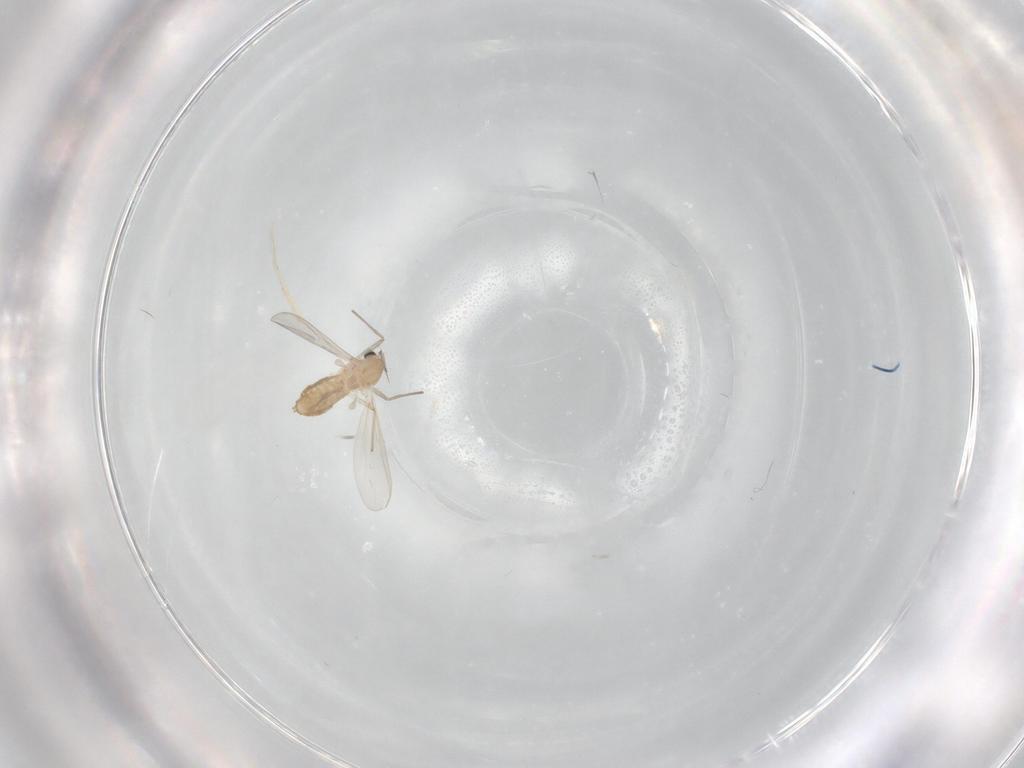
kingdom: Animalia
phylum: Arthropoda
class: Insecta
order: Diptera
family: Chironomidae
